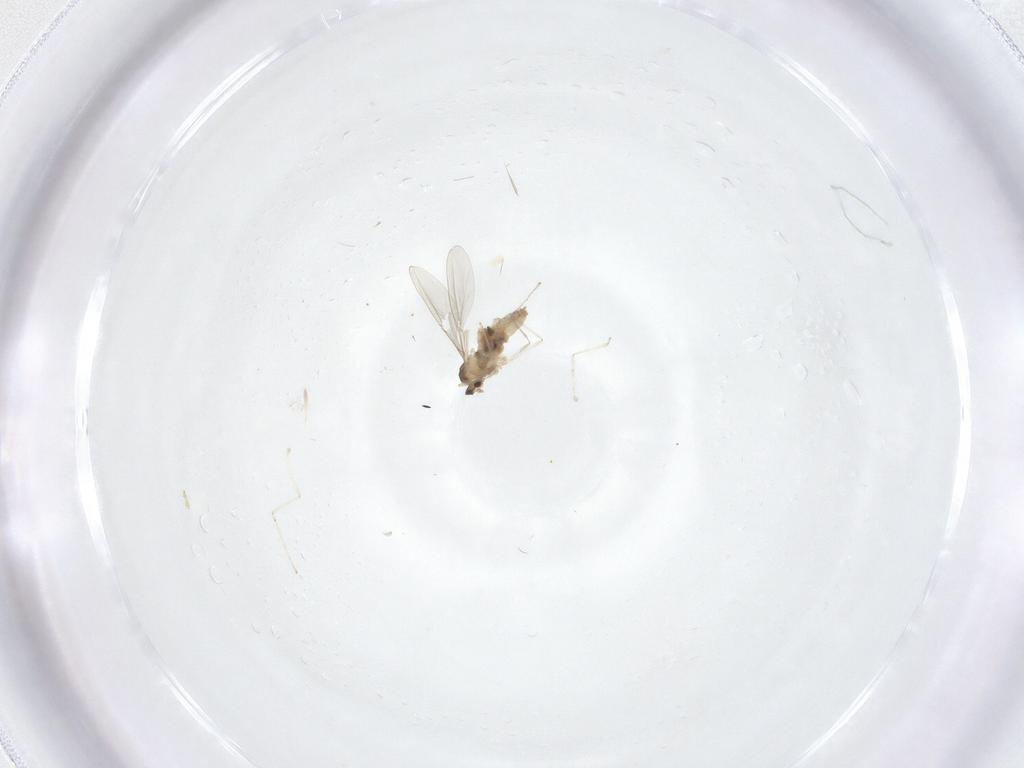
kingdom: Animalia
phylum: Arthropoda
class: Insecta
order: Diptera
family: Cecidomyiidae
